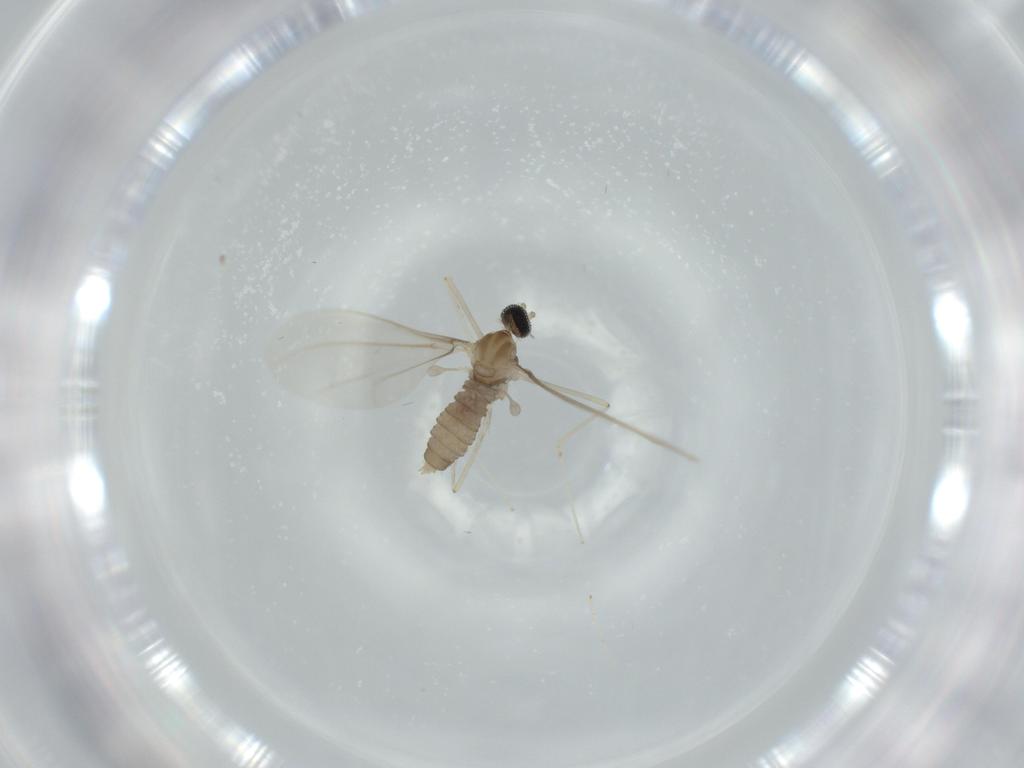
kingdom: Animalia
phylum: Arthropoda
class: Insecta
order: Diptera
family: Cecidomyiidae
